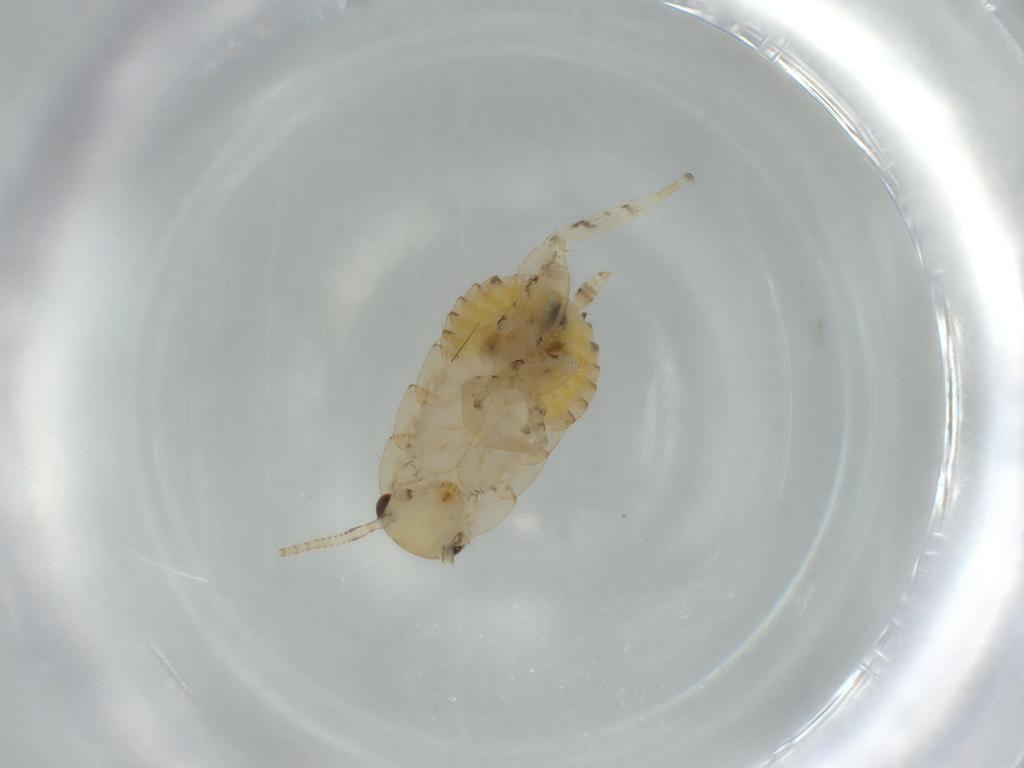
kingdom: Animalia
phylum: Arthropoda
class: Insecta
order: Blattodea
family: Ectobiidae
